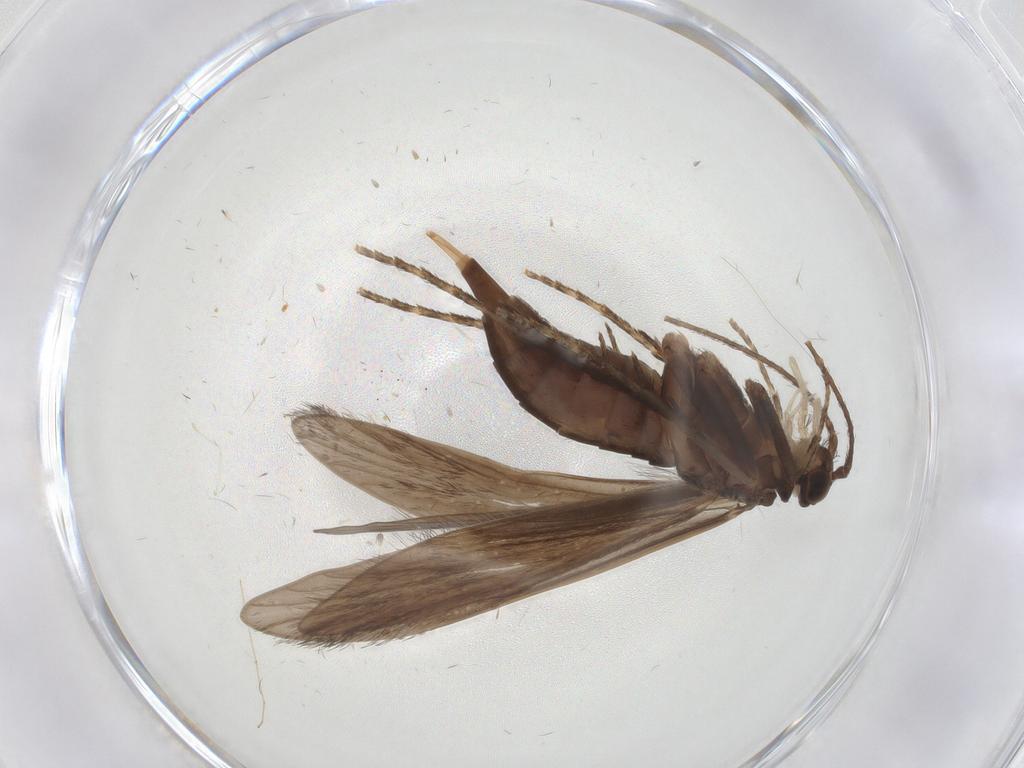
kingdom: Animalia
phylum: Arthropoda
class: Insecta
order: Trichoptera
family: Xiphocentronidae
